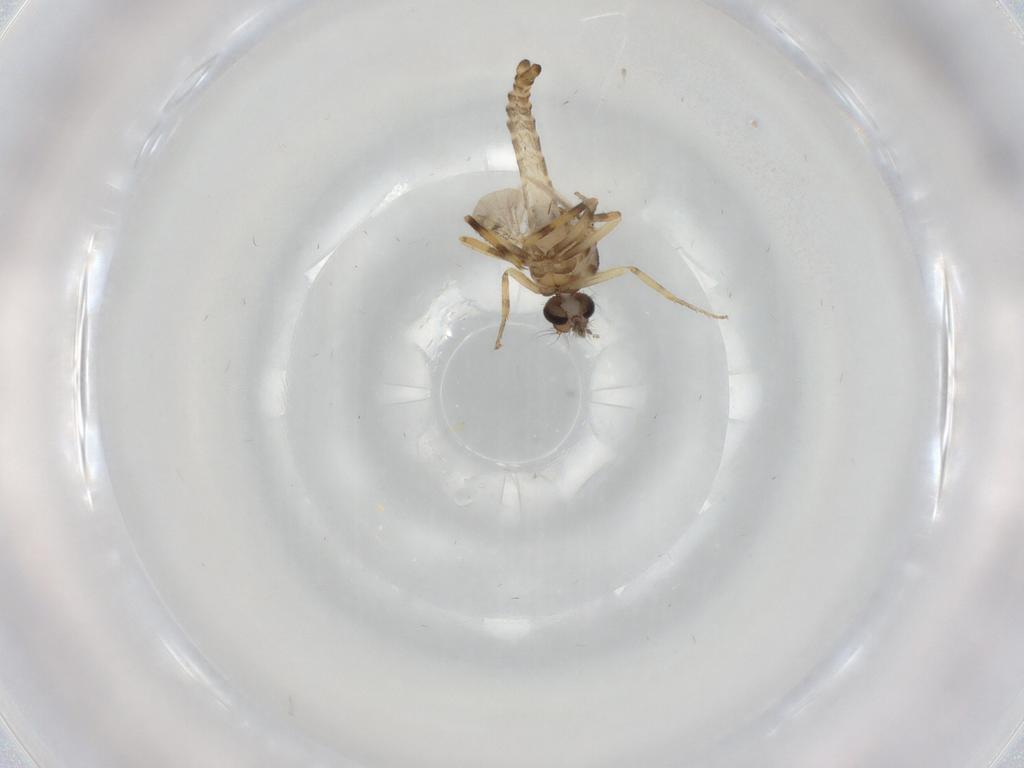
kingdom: Animalia
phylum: Arthropoda
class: Insecta
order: Diptera
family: Ceratopogonidae
